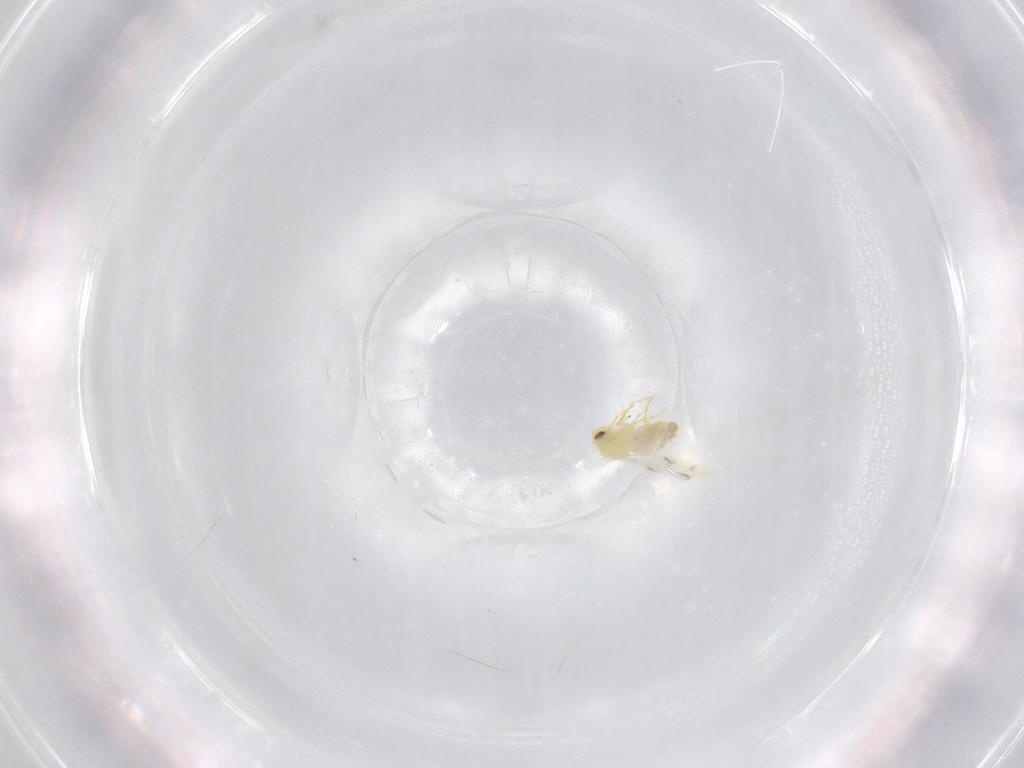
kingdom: Animalia
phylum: Arthropoda
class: Insecta
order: Hemiptera
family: Aleyrodidae
